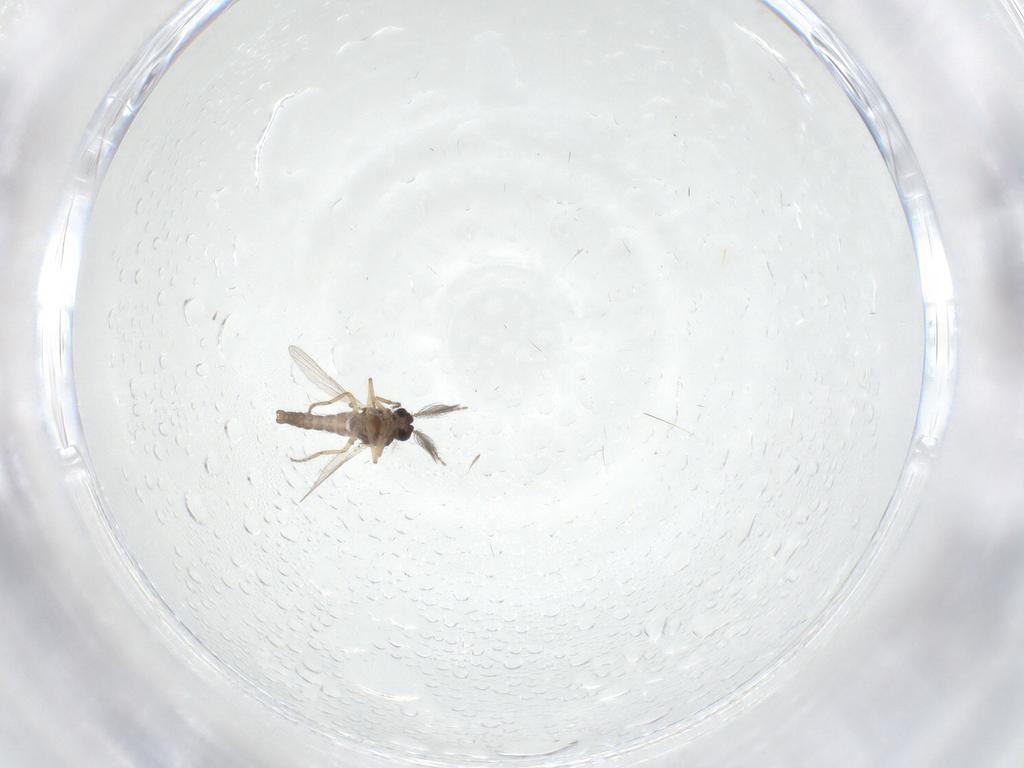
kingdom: Animalia
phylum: Arthropoda
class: Insecta
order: Diptera
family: Ceratopogonidae
